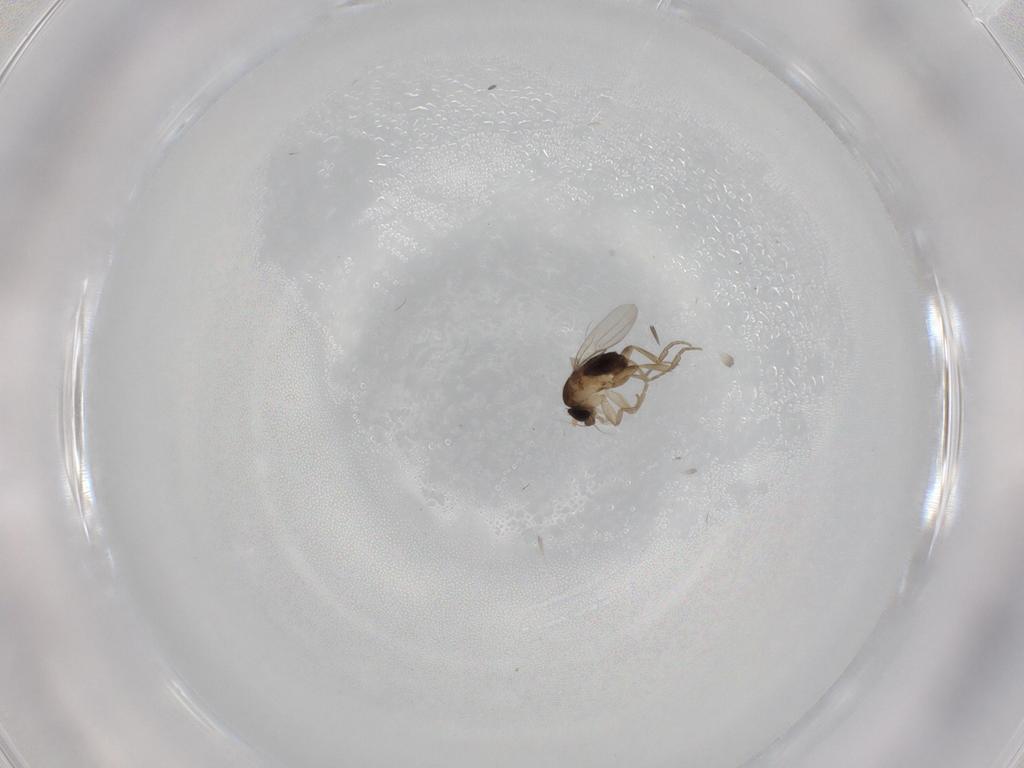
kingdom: Animalia
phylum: Arthropoda
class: Insecta
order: Diptera
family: Phoridae
